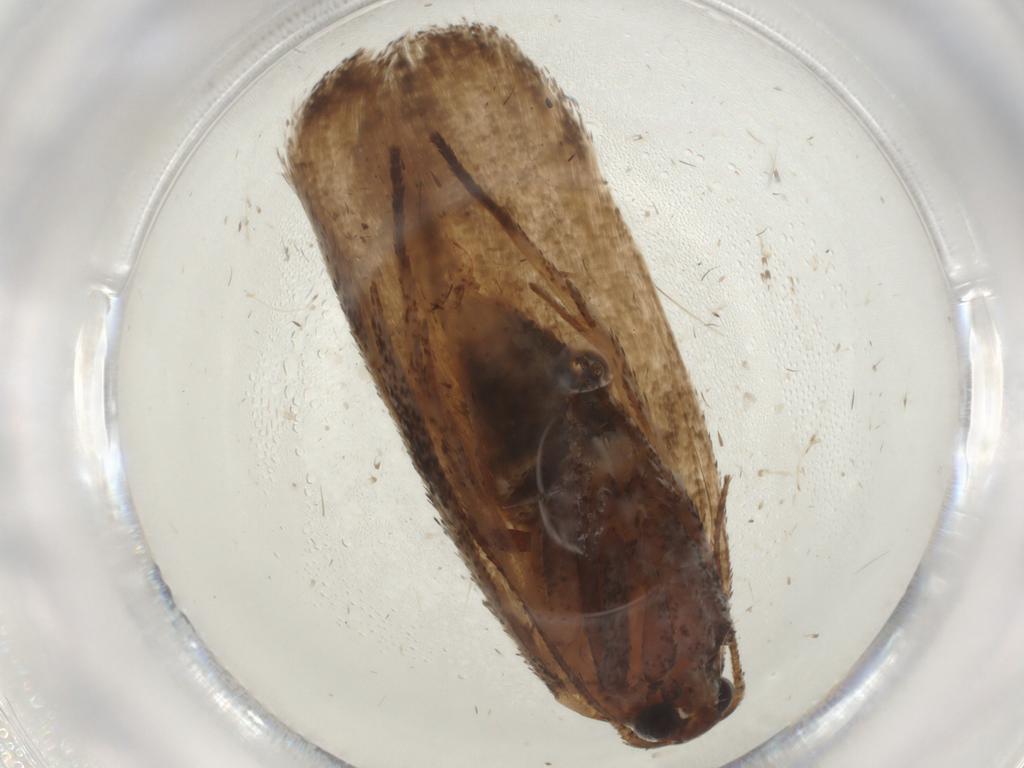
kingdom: Animalia
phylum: Arthropoda
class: Insecta
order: Lepidoptera
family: Cosmopterigidae
